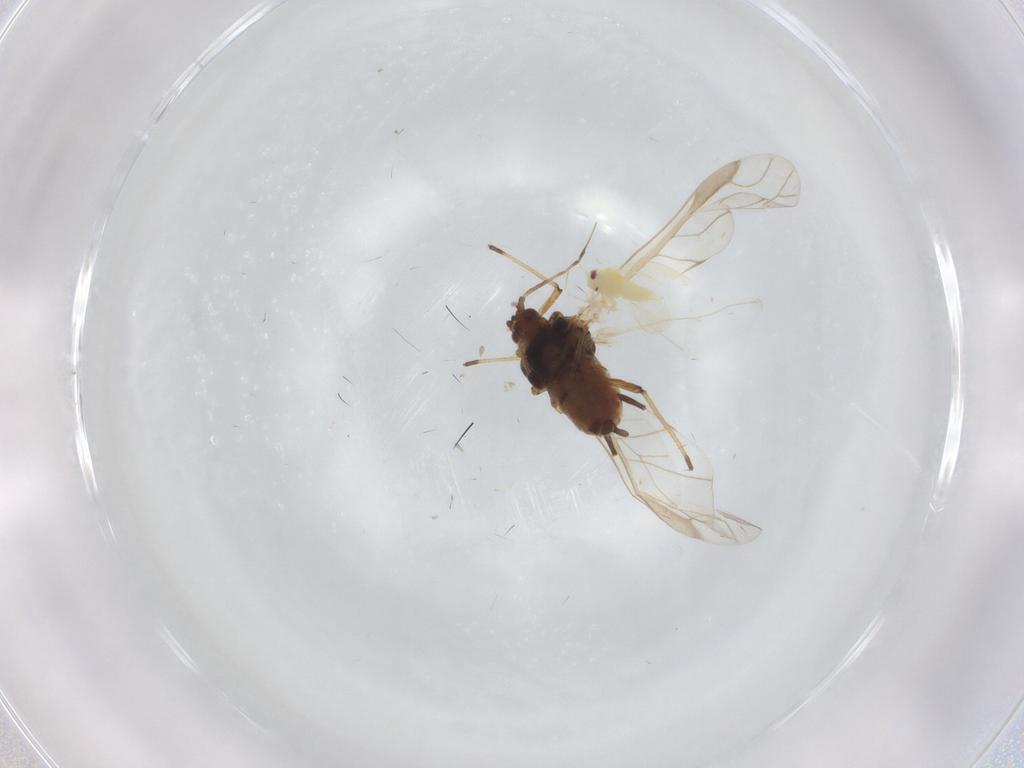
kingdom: Animalia
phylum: Arthropoda
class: Insecta
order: Hemiptera
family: Aphididae
